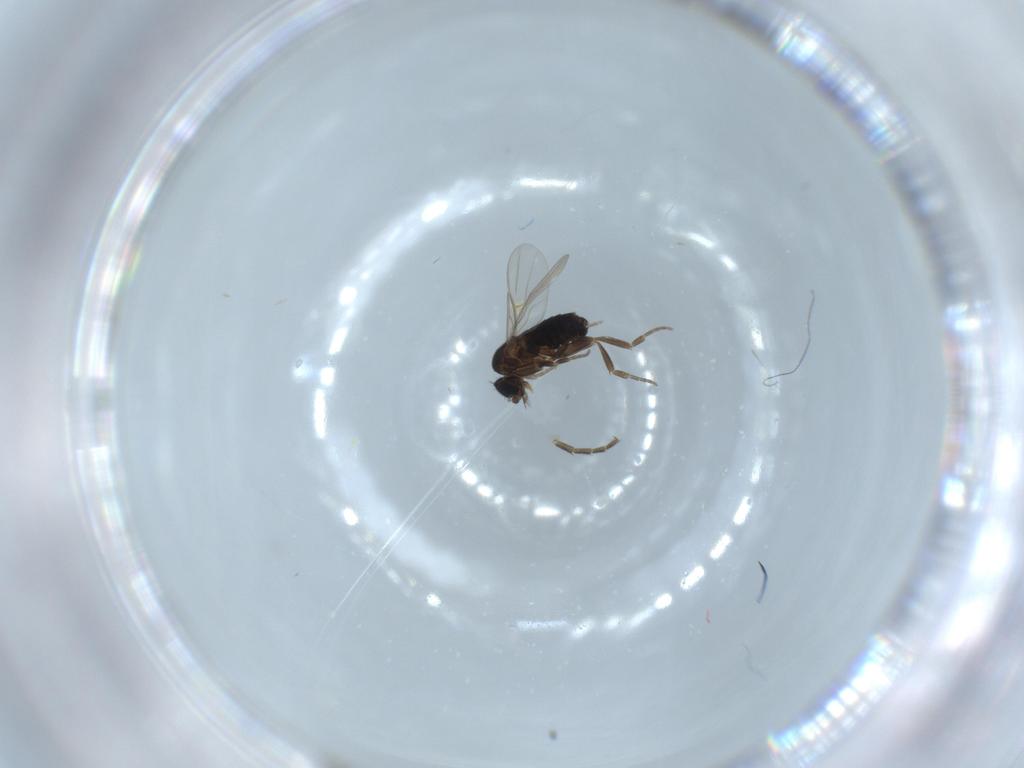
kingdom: Animalia
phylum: Arthropoda
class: Insecta
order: Diptera
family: Phoridae
